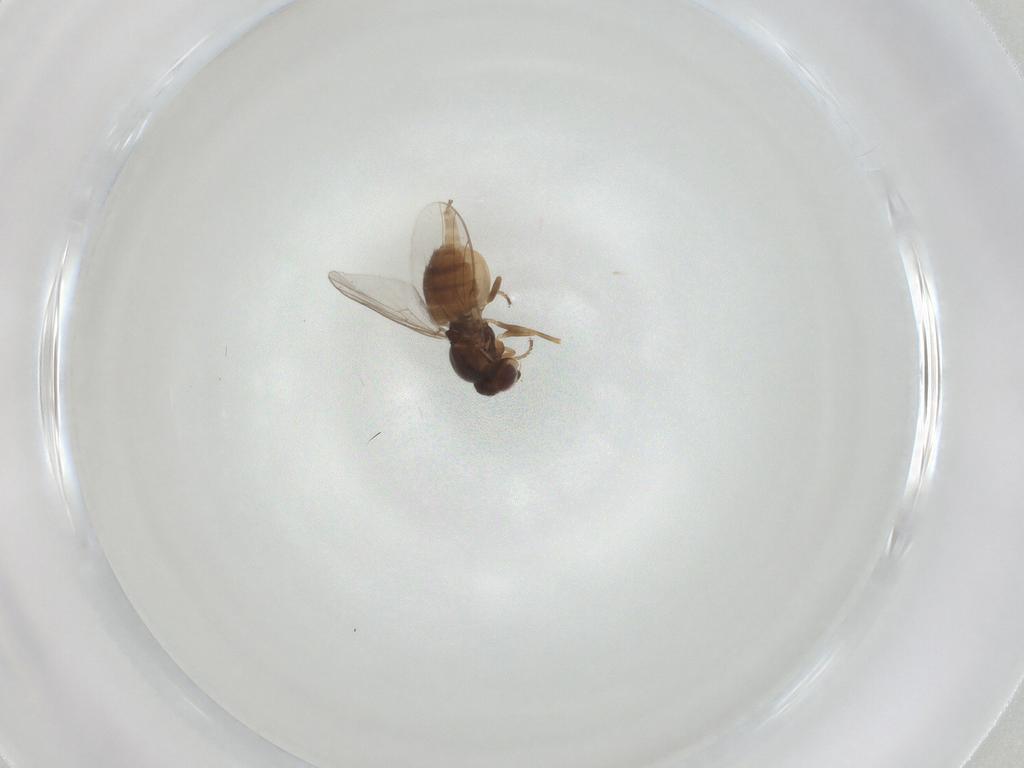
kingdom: Animalia
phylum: Arthropoda
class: Insecta
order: Diptera
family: Chloropidae
